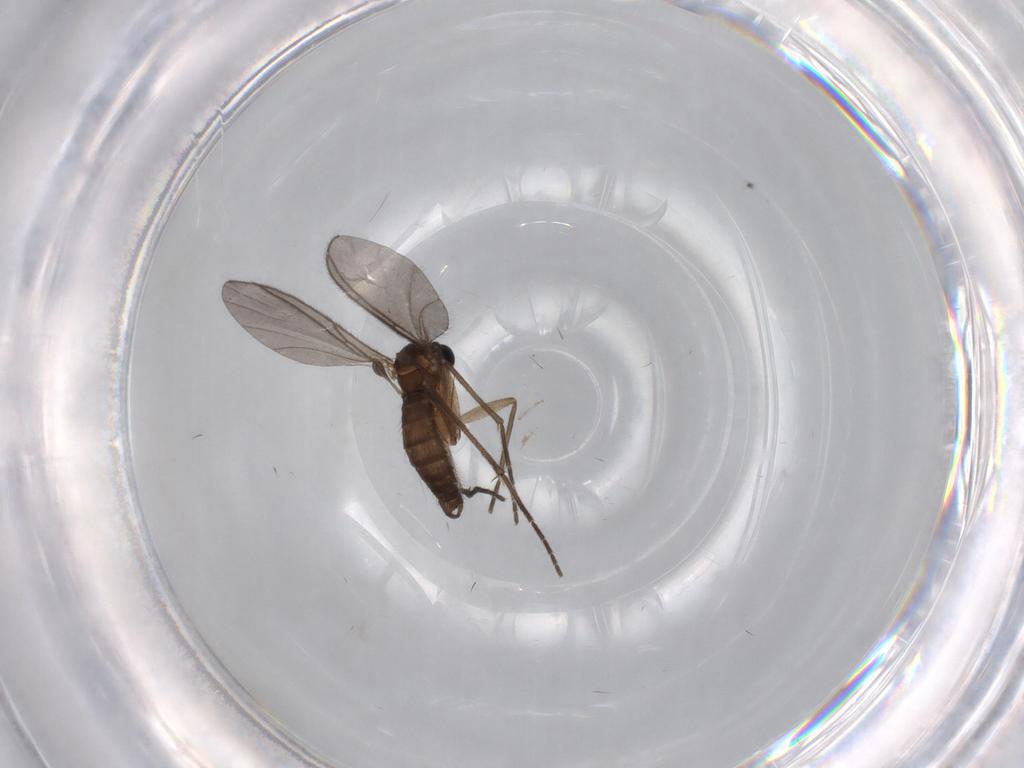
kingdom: Animalia
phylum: Arthropoda
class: Insecta
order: Diptera
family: Cecidomyiidae
